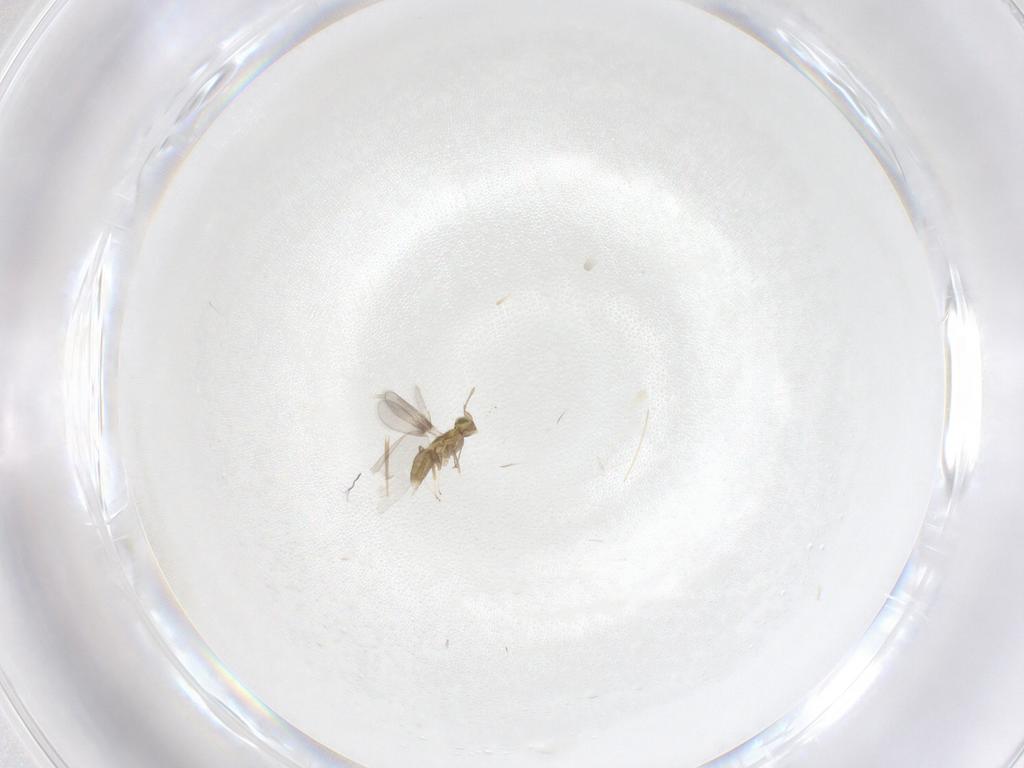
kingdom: Animalia
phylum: Arthropoda
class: Insecta
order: Hymenoptera
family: Aphelinidae
